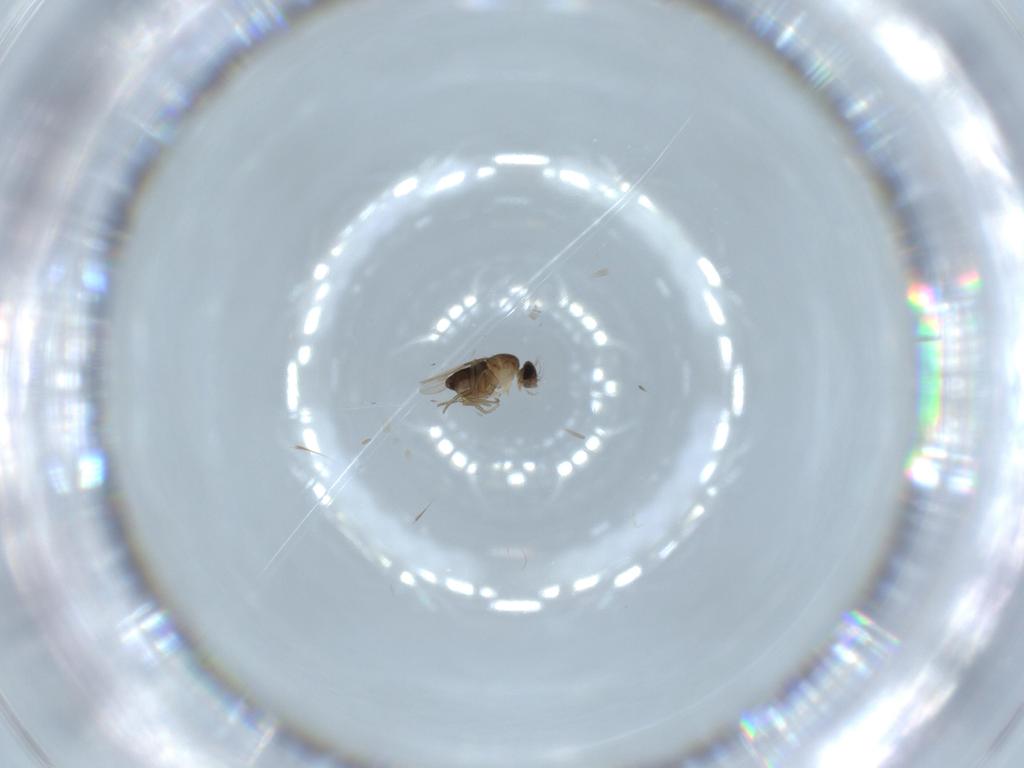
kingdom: Animalia
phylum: Arthropoda
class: Insecta
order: Diptera
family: Phoridae
